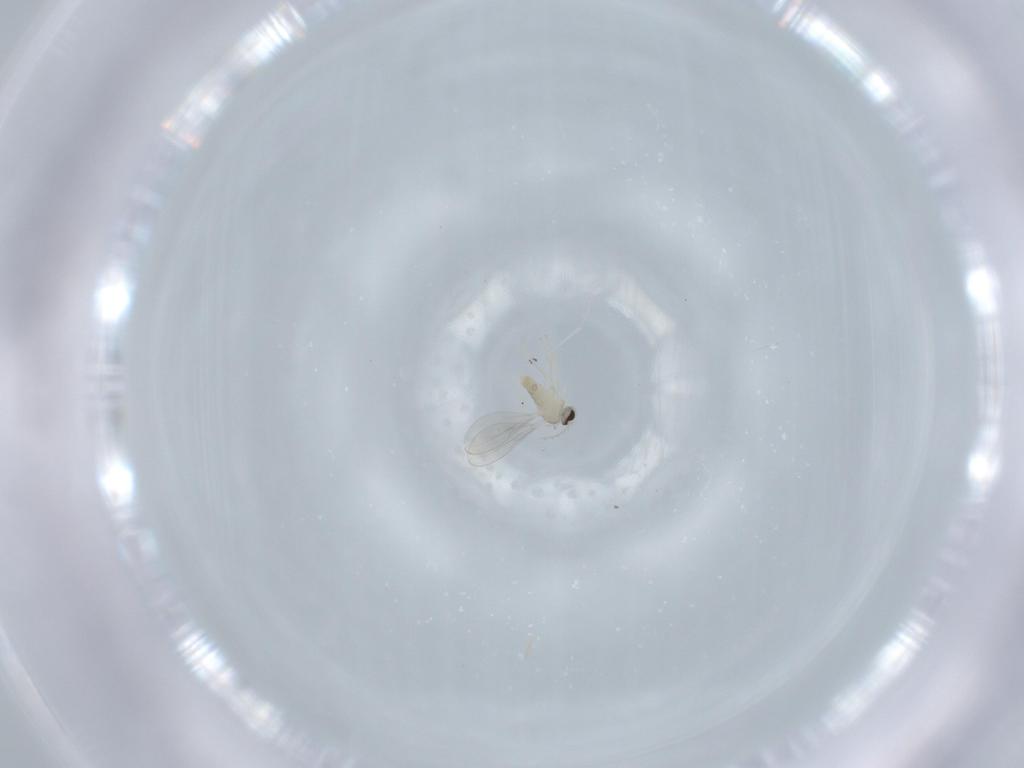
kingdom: Animalia
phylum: Arthropoda
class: Insecta
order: Diptera
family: Cecidomyiidae
